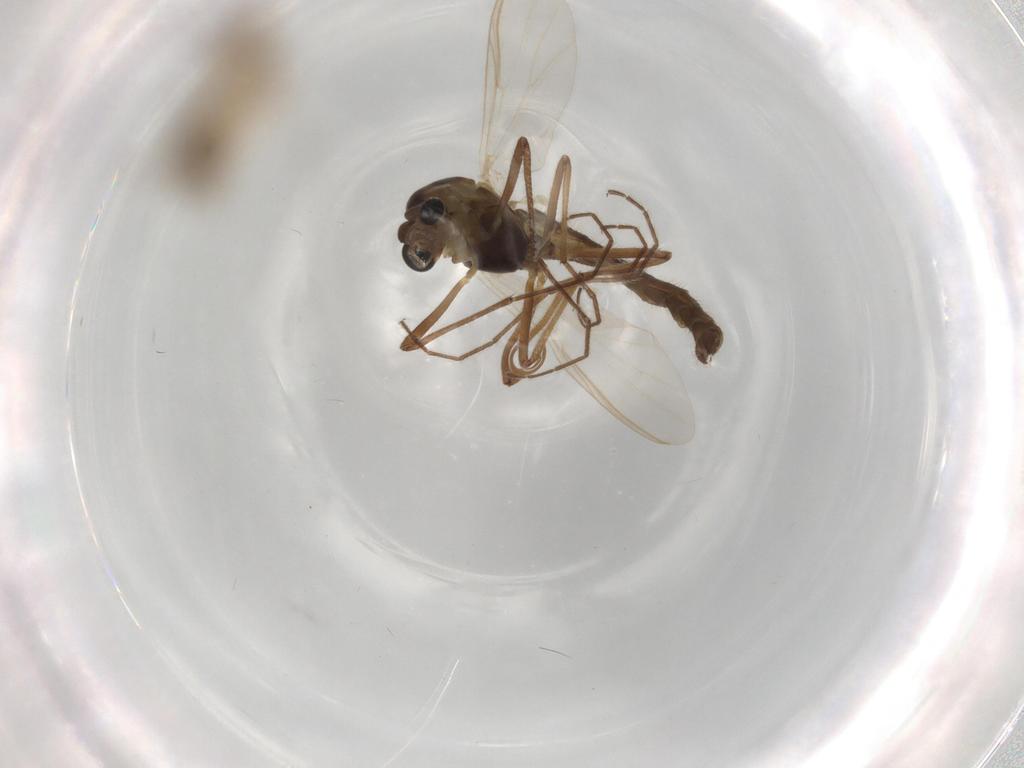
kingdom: Animalia
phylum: Arthropoda
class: Insecta
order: Diptera
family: Chironomidae
